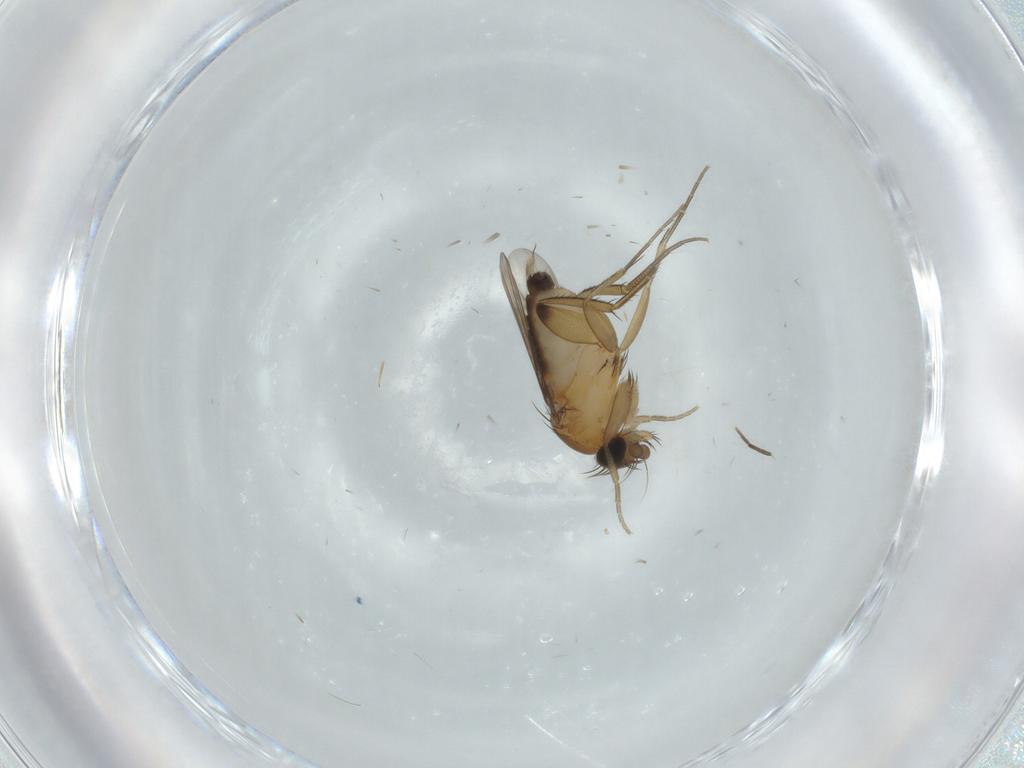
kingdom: Animalia
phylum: Arthropoda
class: Insecta
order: Diptera
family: Phoridae
